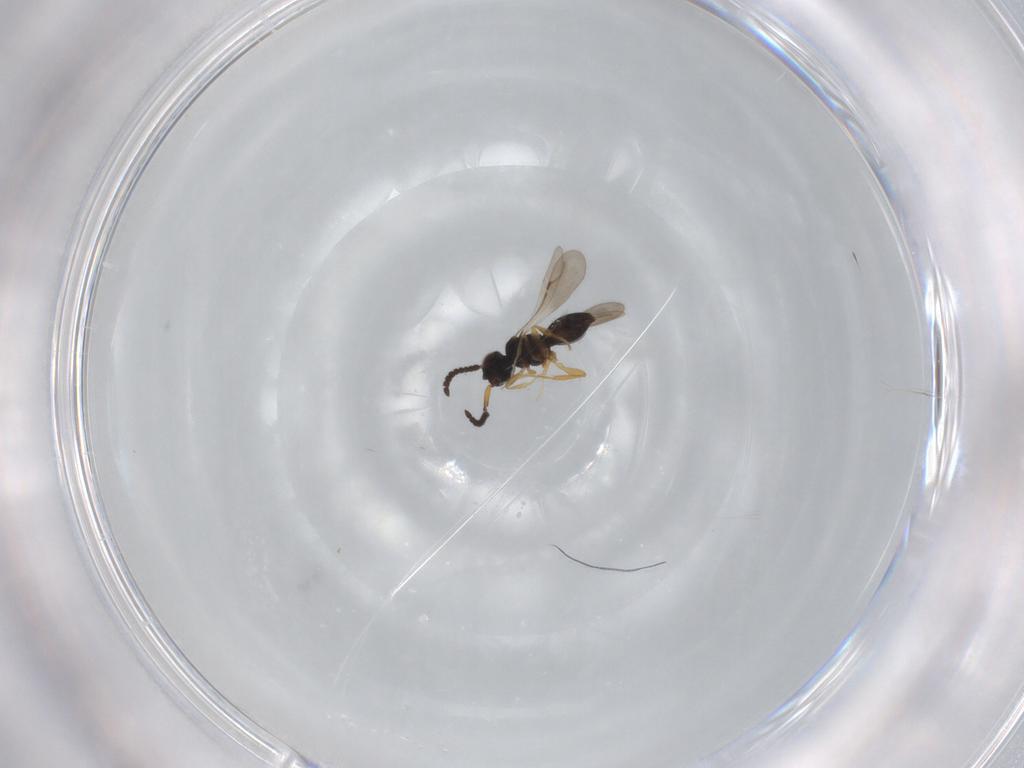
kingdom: Animalia
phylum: Arthropoda
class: Insecta
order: Hymenoptera
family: Ceraphronidae
